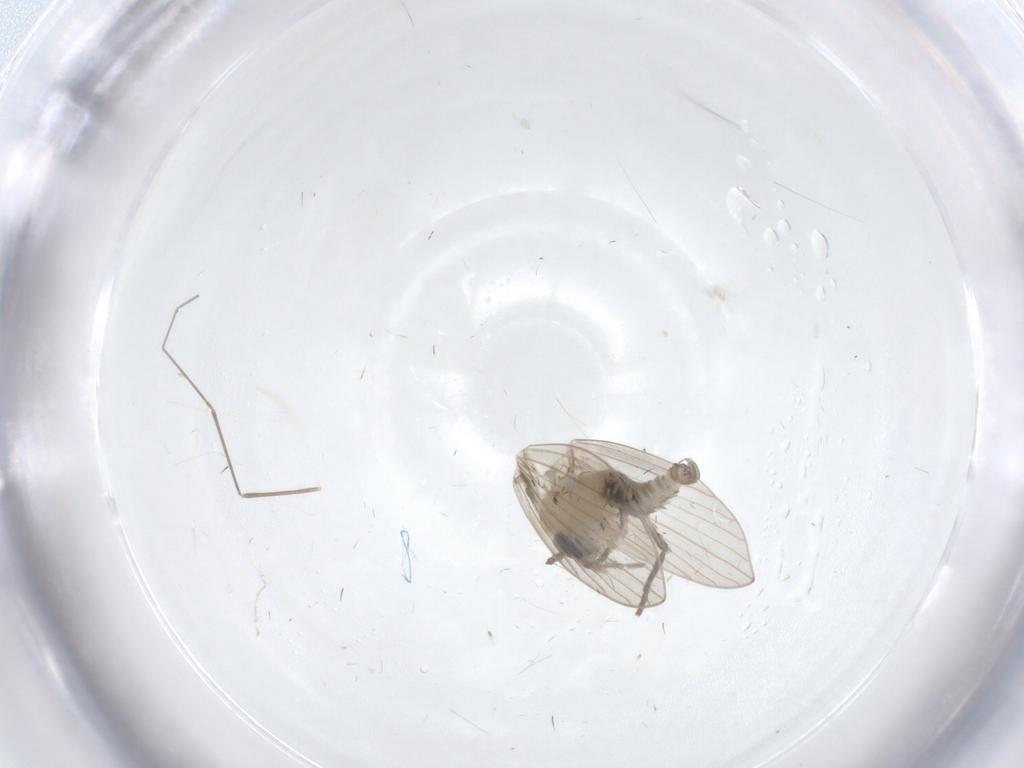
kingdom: Animalia
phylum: Arthropoda
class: Insecta
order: Diptera
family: Psychodidae
